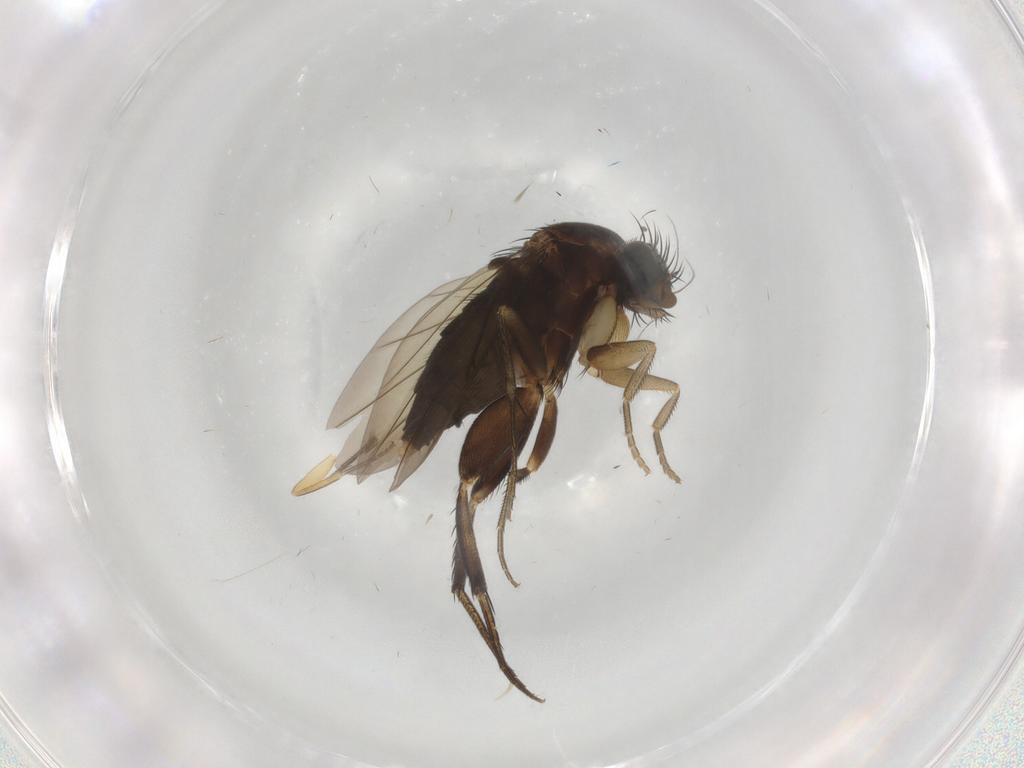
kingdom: Animalia
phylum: Arthropoda
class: Insecta
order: Diptera
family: Phoridae
